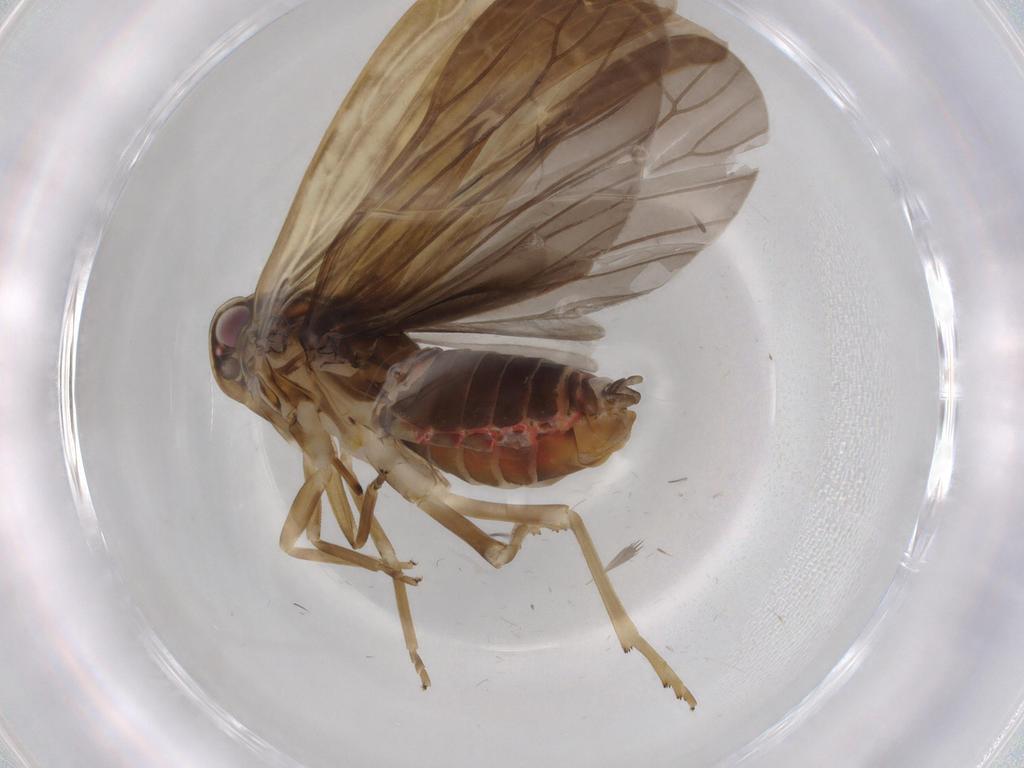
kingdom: Animalia
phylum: Arthropoda
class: Insecta
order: Hemiptera
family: Achilidae
